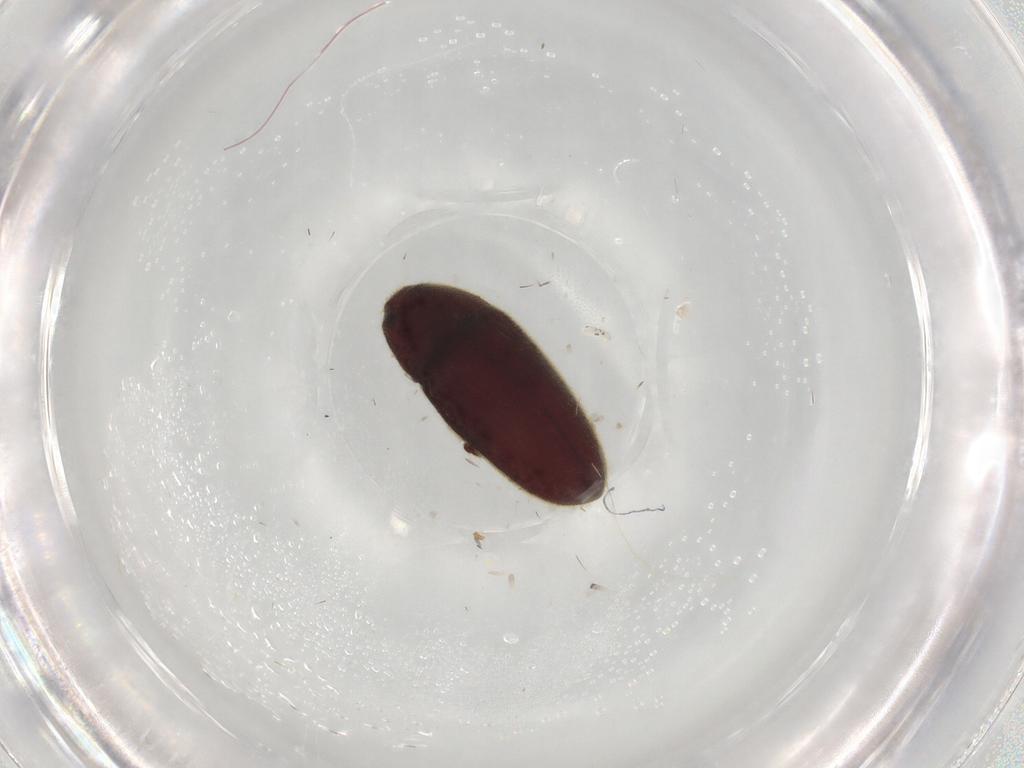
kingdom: Animalia
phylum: Arthropoda
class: Insecta
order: Coleoptera
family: Throscidae
